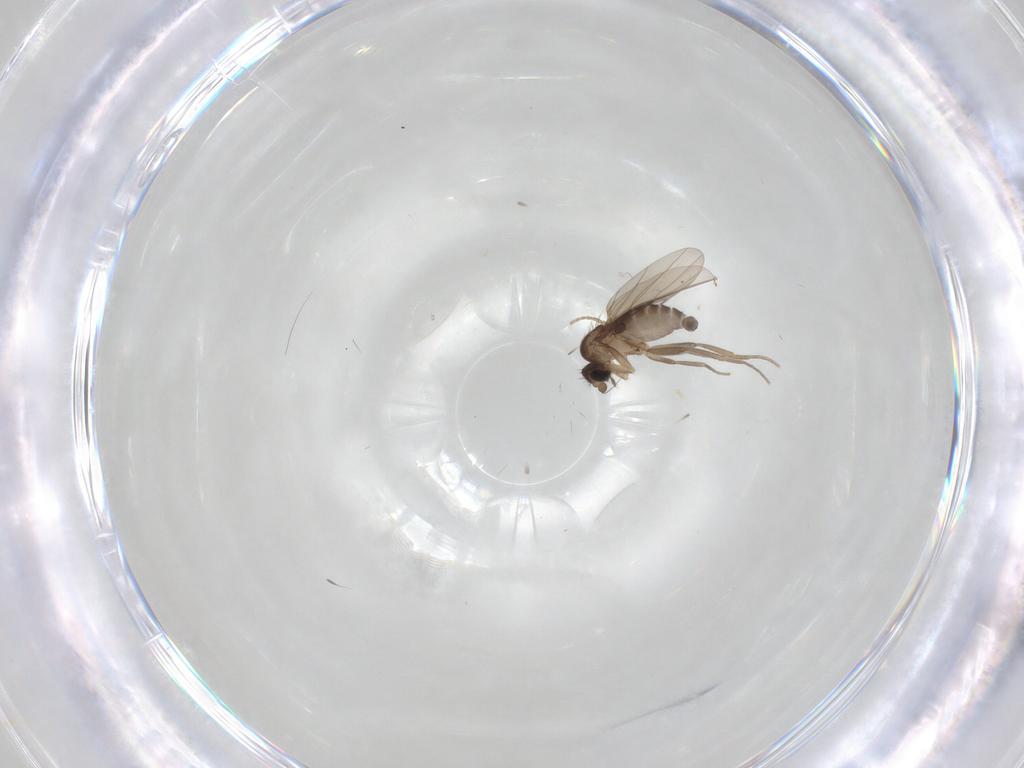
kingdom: Animalia
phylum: Arthropoda
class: Insecta
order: Diptera
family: Phoridae
